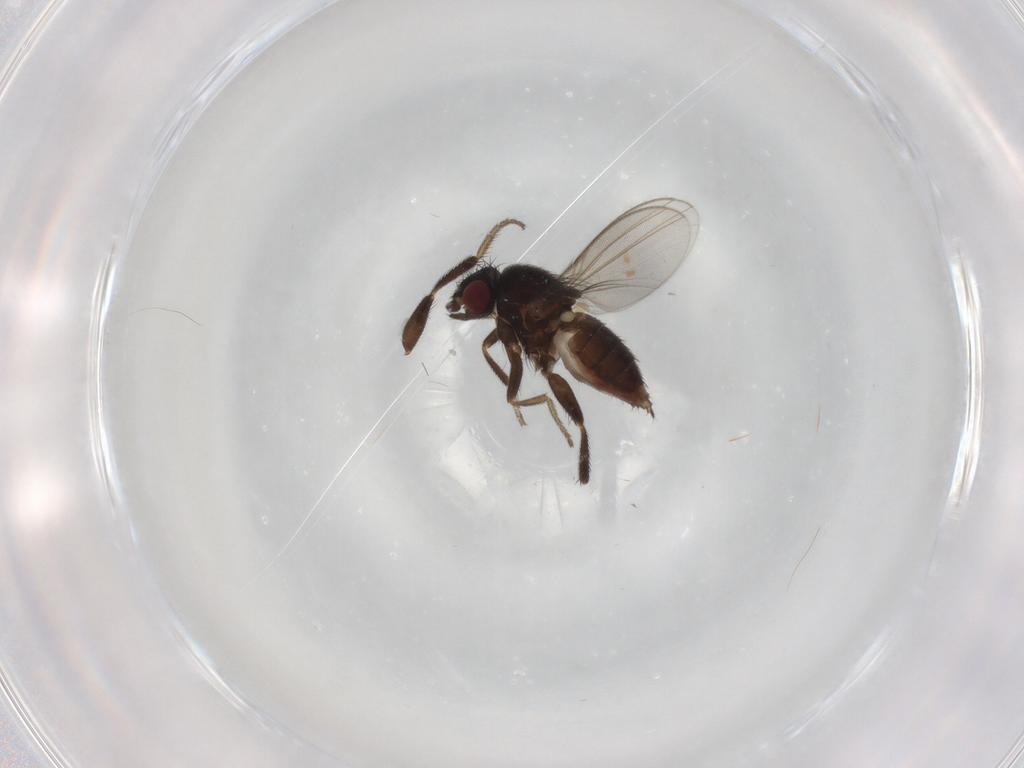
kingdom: Animalia
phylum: Arthropoda
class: Insecta
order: Diptera
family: Milichiidae
